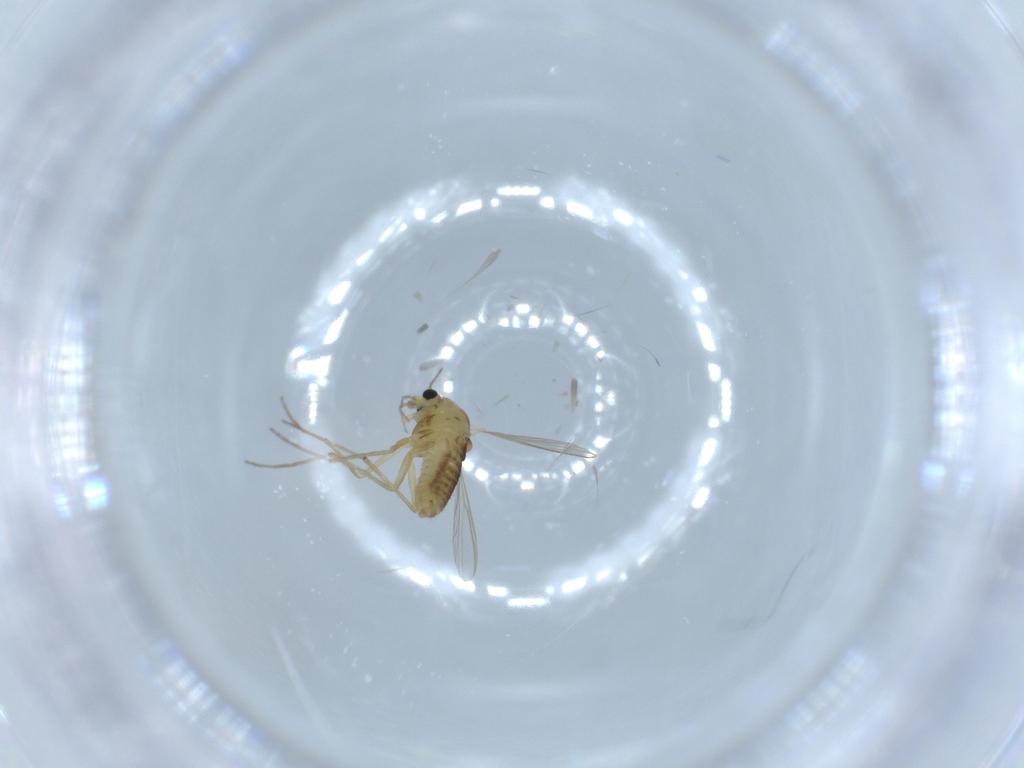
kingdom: Animalia
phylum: Arthropoda
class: Insecta
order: Diptera
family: Chironomidae
